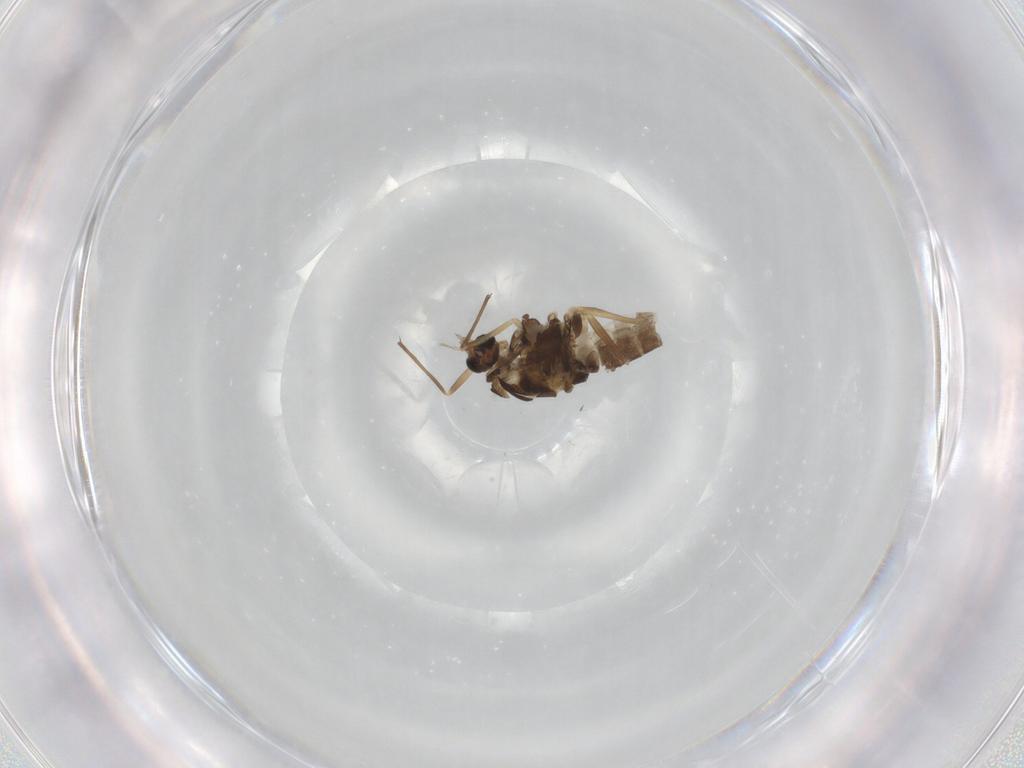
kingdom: Animalia
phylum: Arthropoda
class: Insecta
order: Diptera
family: Chironomidae
